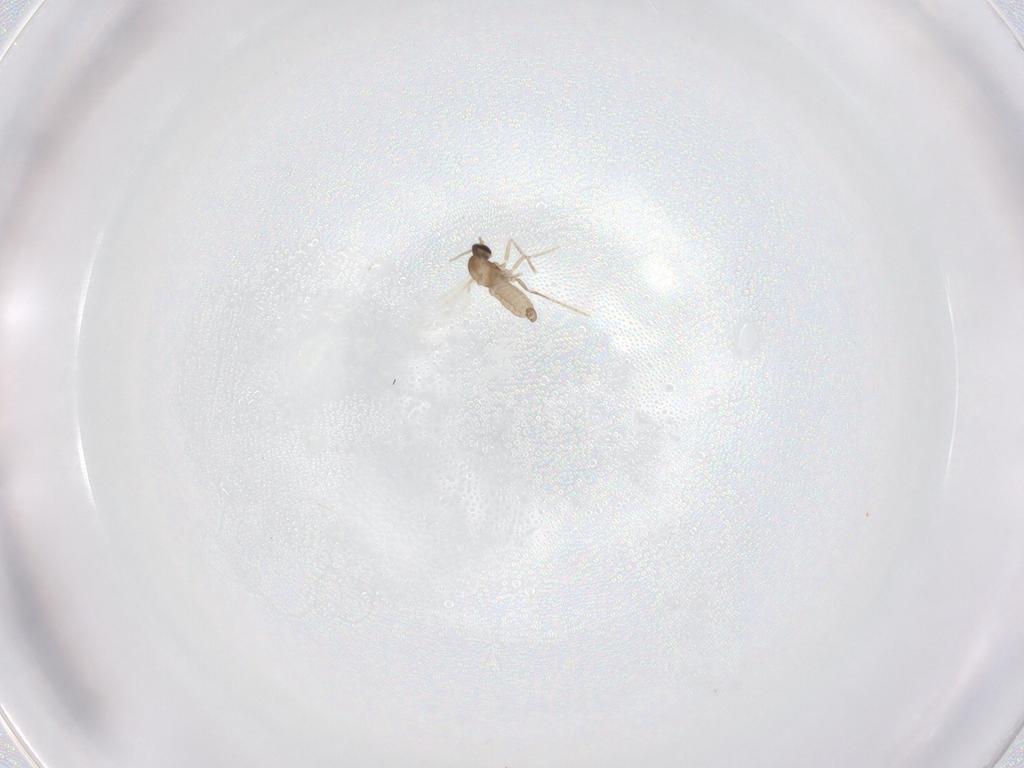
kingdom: Animalia
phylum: Arthropoda
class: Insecta
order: Diptera
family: Cecidomyiidae
